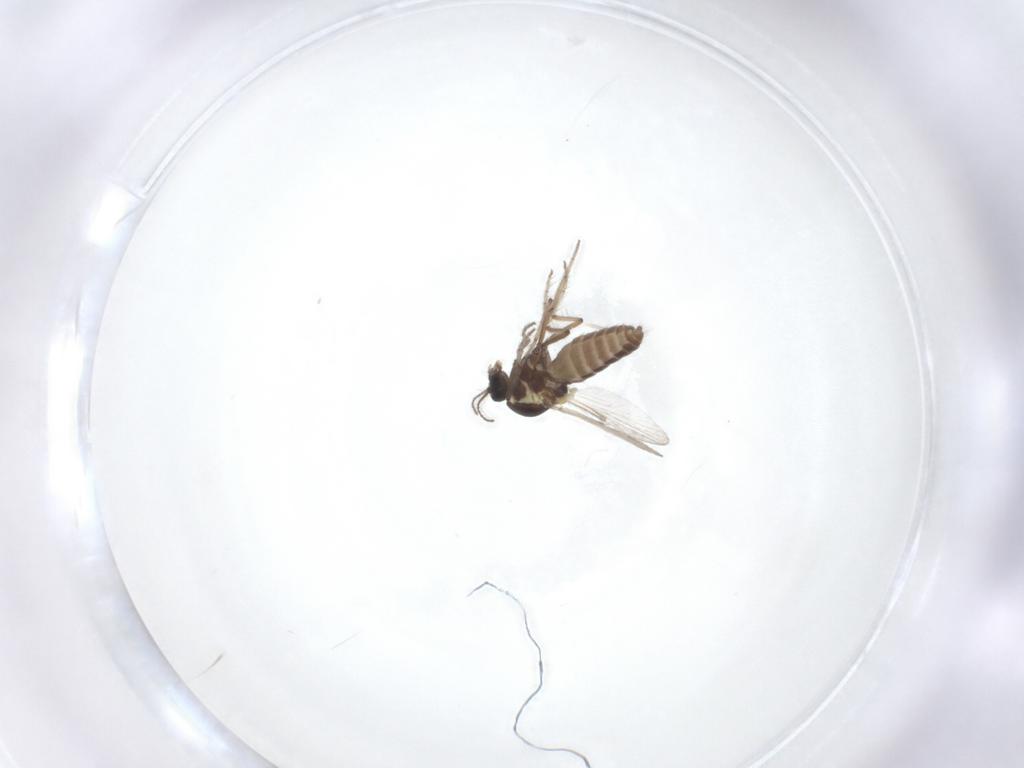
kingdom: Animalia
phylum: Arthropoda
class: Insecta
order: Diptera
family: Ceratopogonidae
